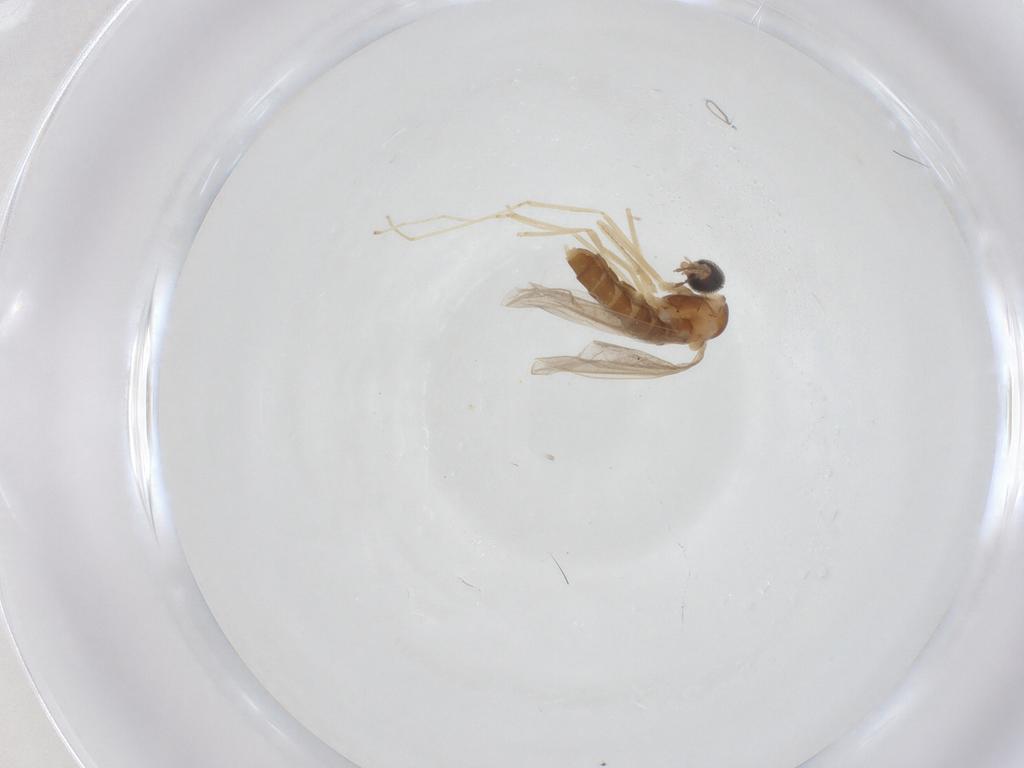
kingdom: Animalia
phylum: Arthropoda
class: Insecta
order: Diptera
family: Cecidomyiidae
